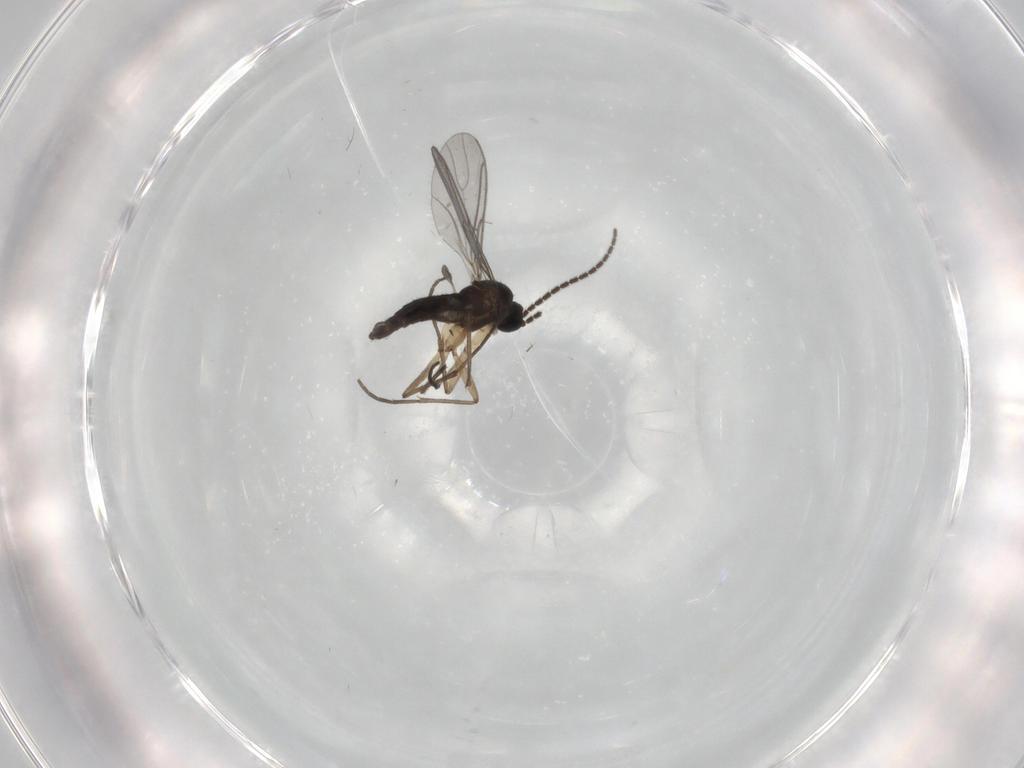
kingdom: Animalia
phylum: Arthropoda
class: Insecta
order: Diptera
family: Sciaridae
